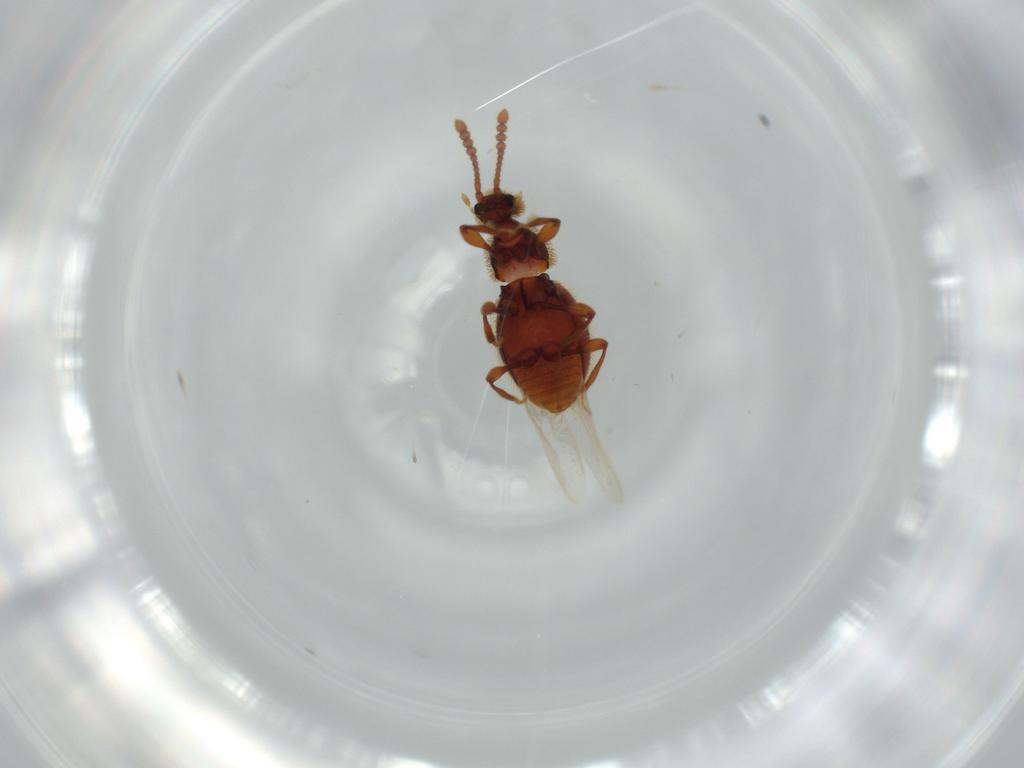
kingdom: Animalia
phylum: Arthropoda
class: Insecta
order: Coleoptera
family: Staphylinidae
